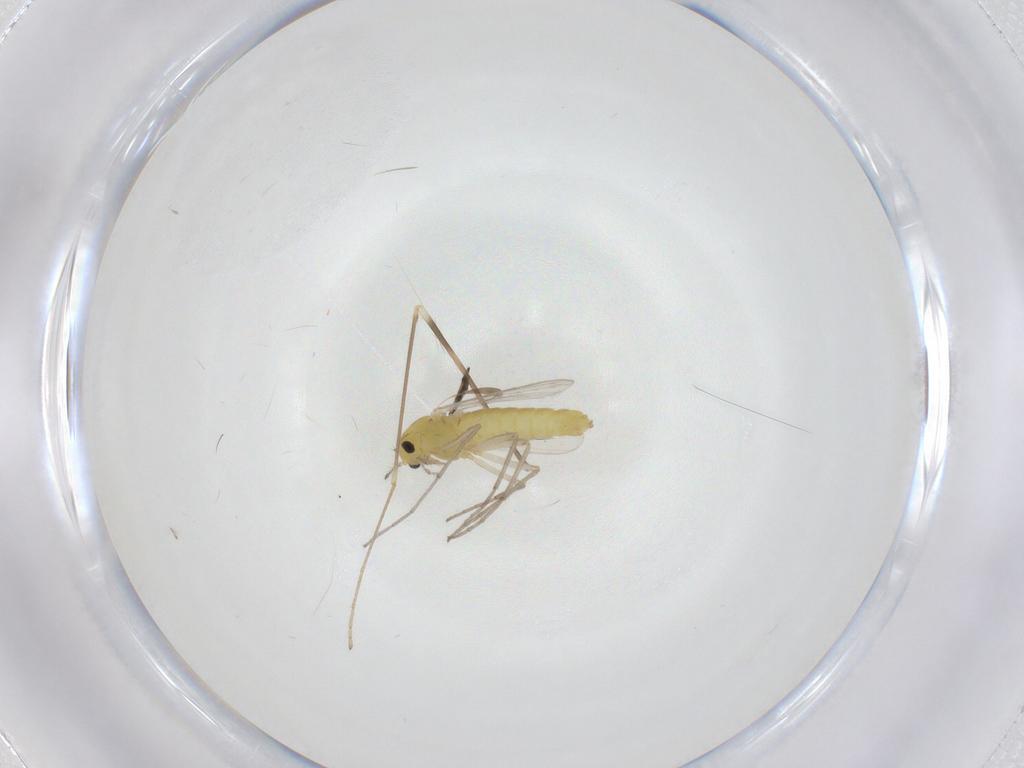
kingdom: Animalia
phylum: Arthropoda
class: Insecta
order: Diptera
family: Chironomidae
